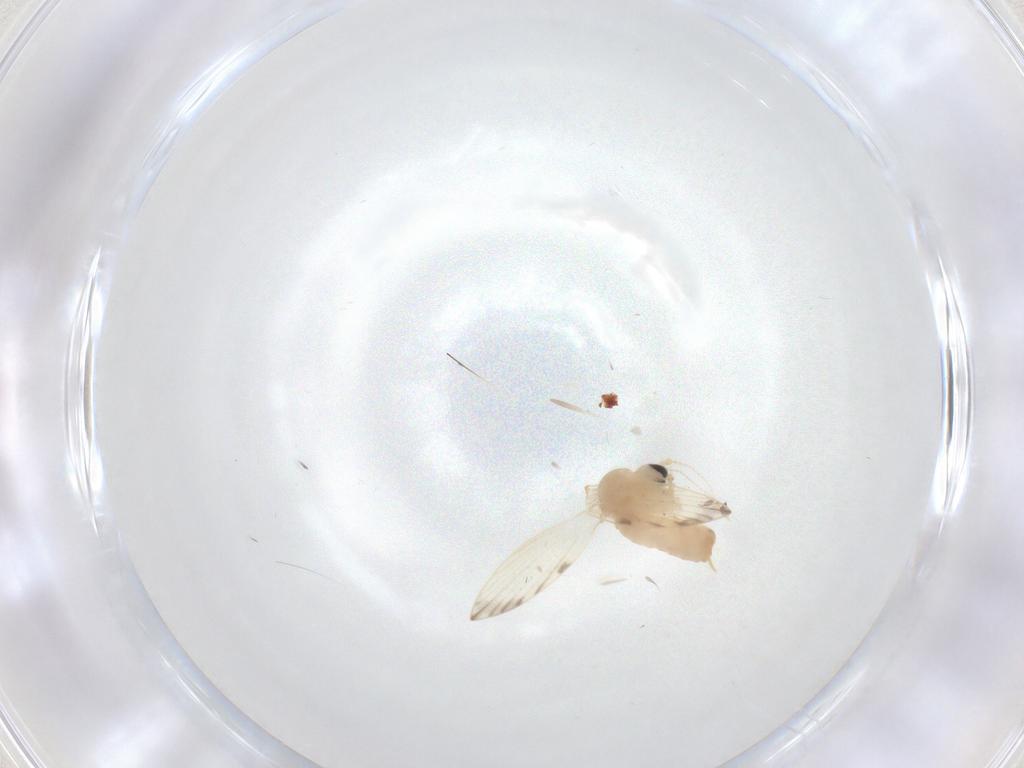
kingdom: Animalia
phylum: Arthropoda
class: Insecta
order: Diptera
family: Psychodidae
